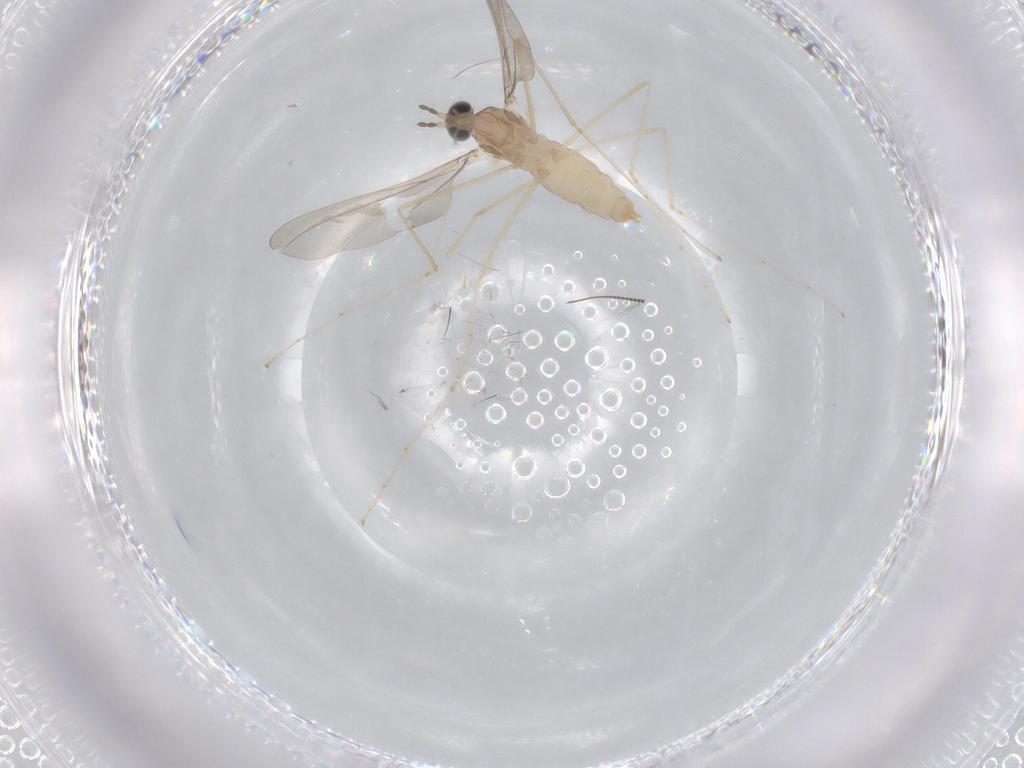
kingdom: Animalia
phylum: Arthropoda
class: Insecta
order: Diptera
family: Cecidomyiidae
